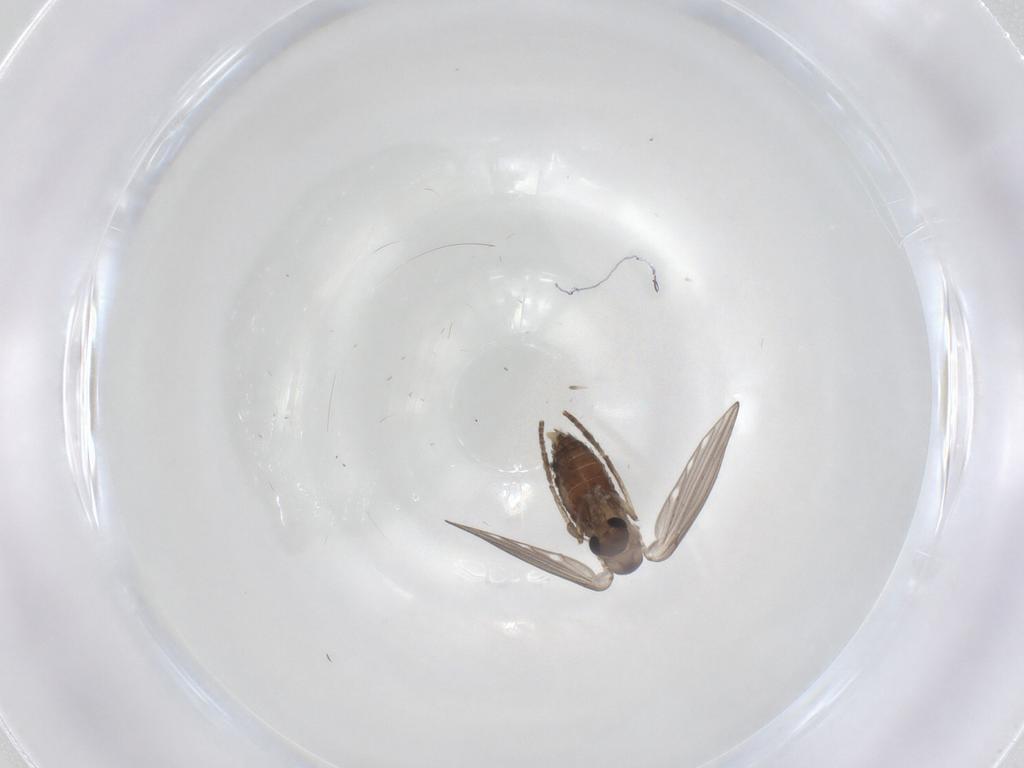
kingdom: Animalia
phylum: Arthropoda
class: Insecta
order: Diptera
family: Psychodidae
